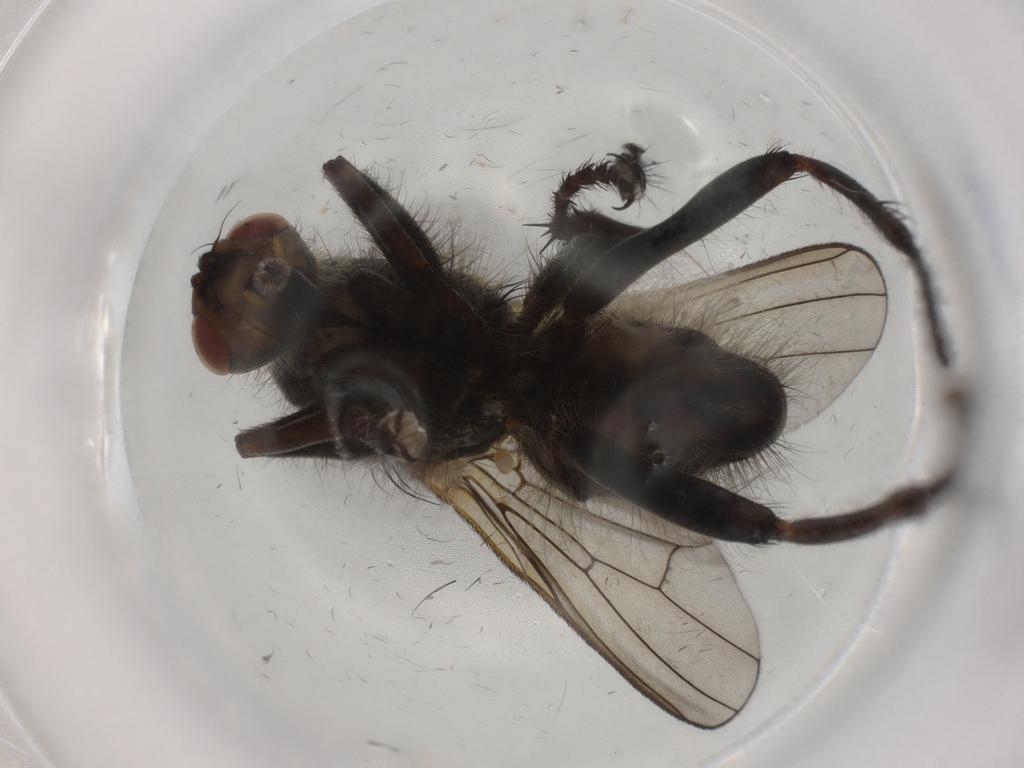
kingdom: Animalia
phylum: Arthropoda
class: Insecta
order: Diptera
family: Scathophagidae
